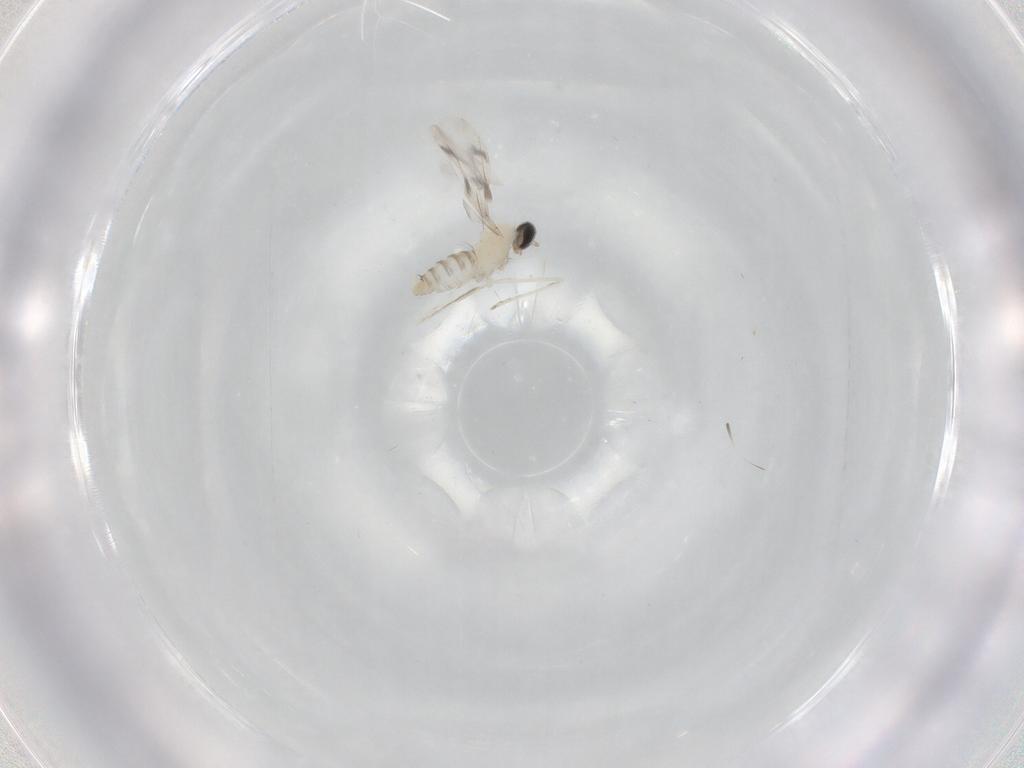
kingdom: Animalia
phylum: Arthropoda
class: Insecta
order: Diptera
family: Cecidomyiidae
